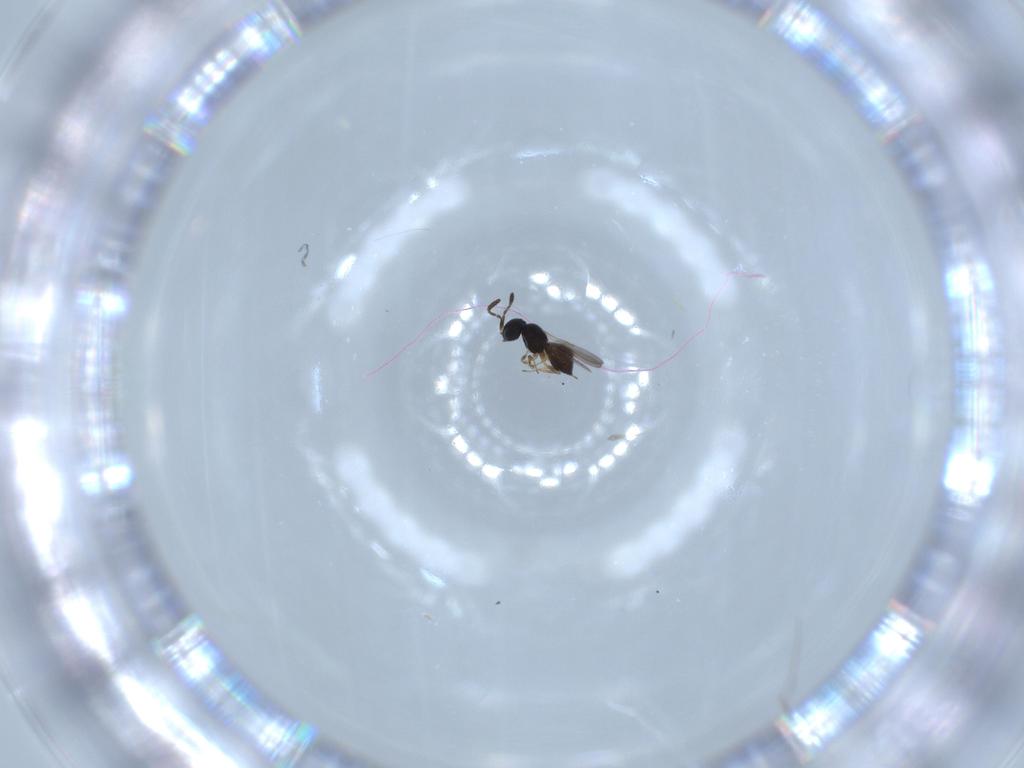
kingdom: Animalia
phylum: Arthropoda
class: Insecta
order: Hymenoptera
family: Scelionidae
